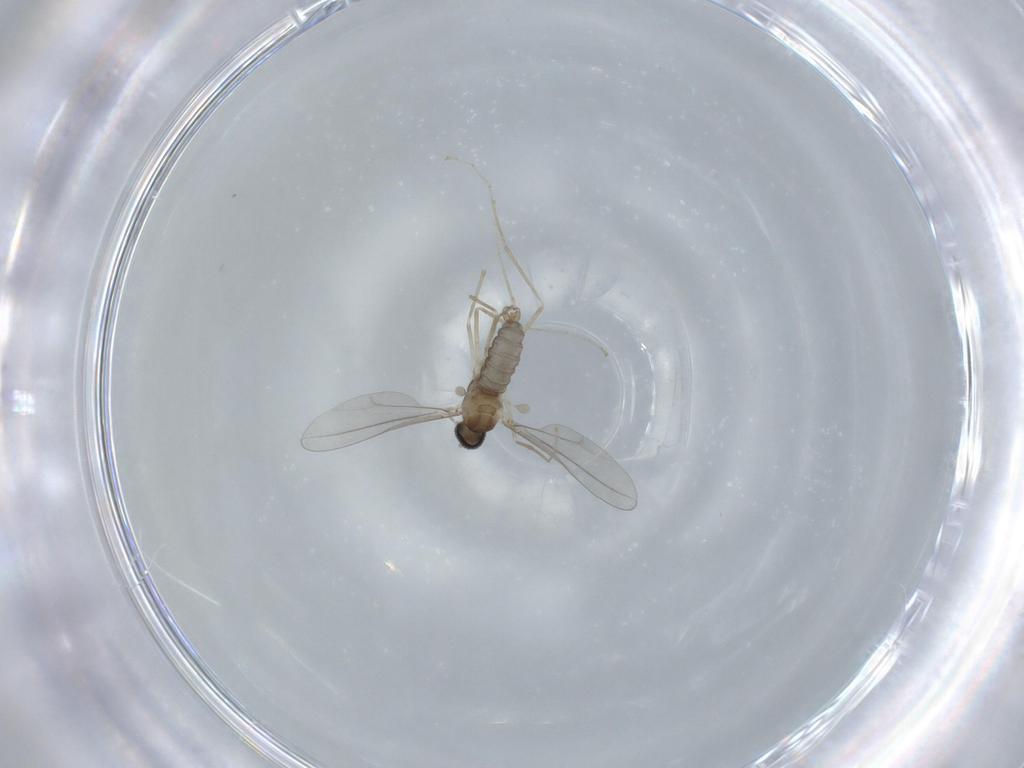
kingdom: Animalia
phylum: Arthropoda
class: Insecta
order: Diptera
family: Cecidomyiidae
